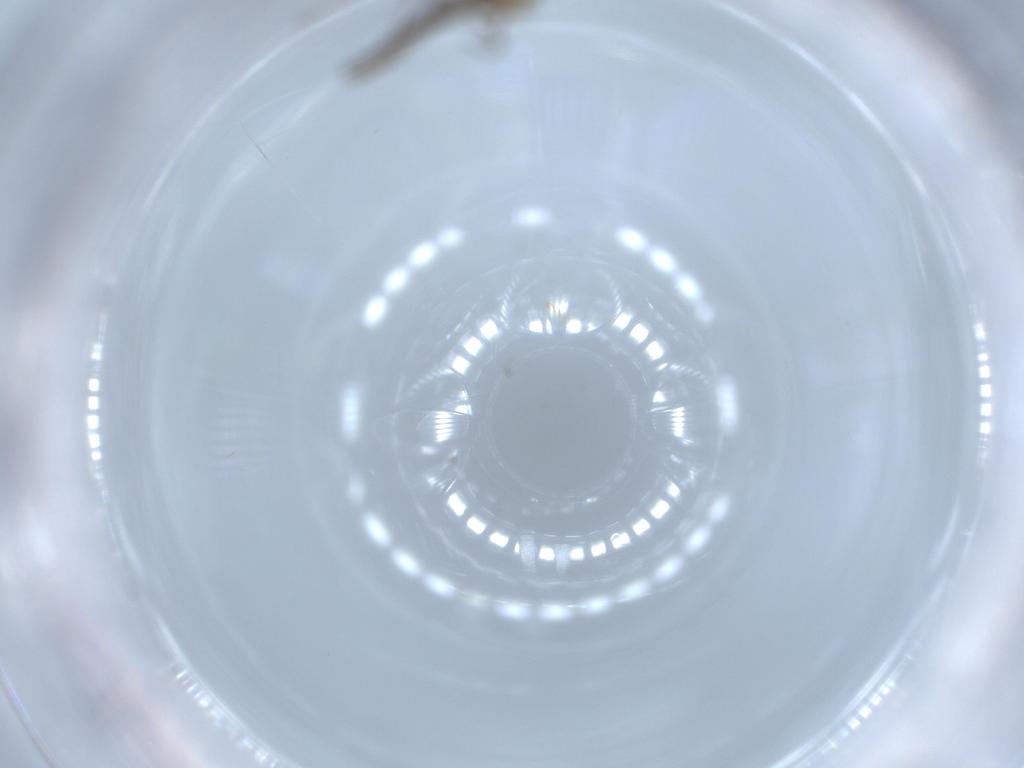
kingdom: Animalia
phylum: Arthropoda
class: Insecta
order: Diptera
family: Chironomidae
